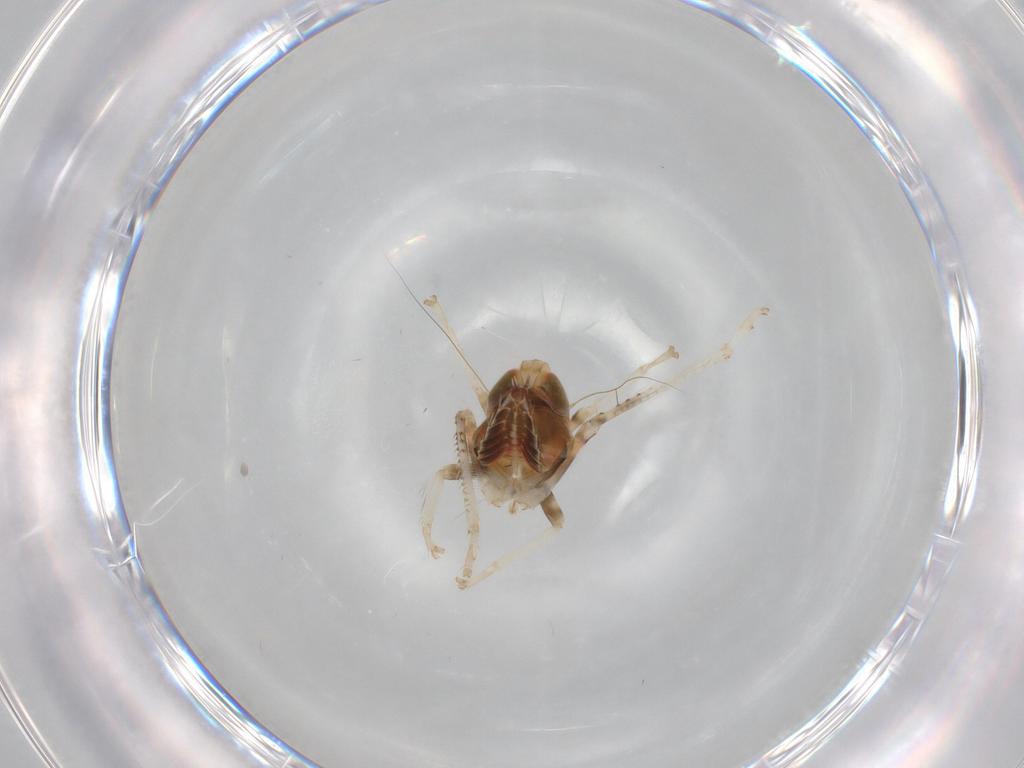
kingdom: Animalia
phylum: Arthropoda
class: Insecta
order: Hemiptera
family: Cicadellidae
